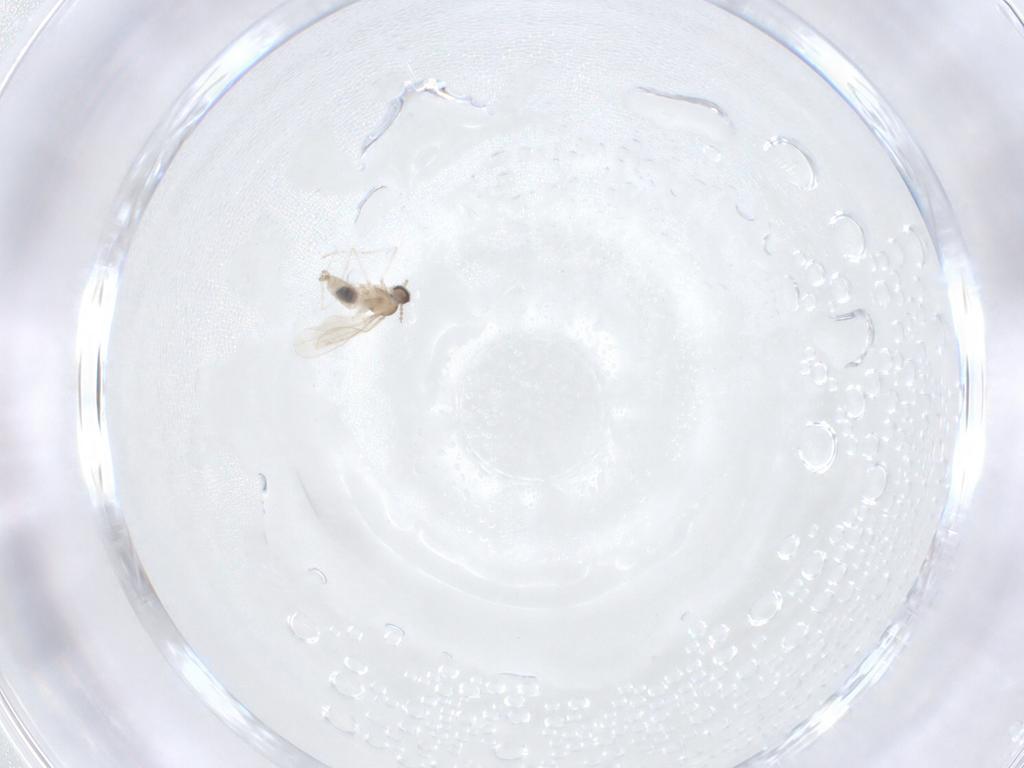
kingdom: Animalia
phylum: Arthropoda
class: Insecta
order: Diptera
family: Cecidomyiidae
